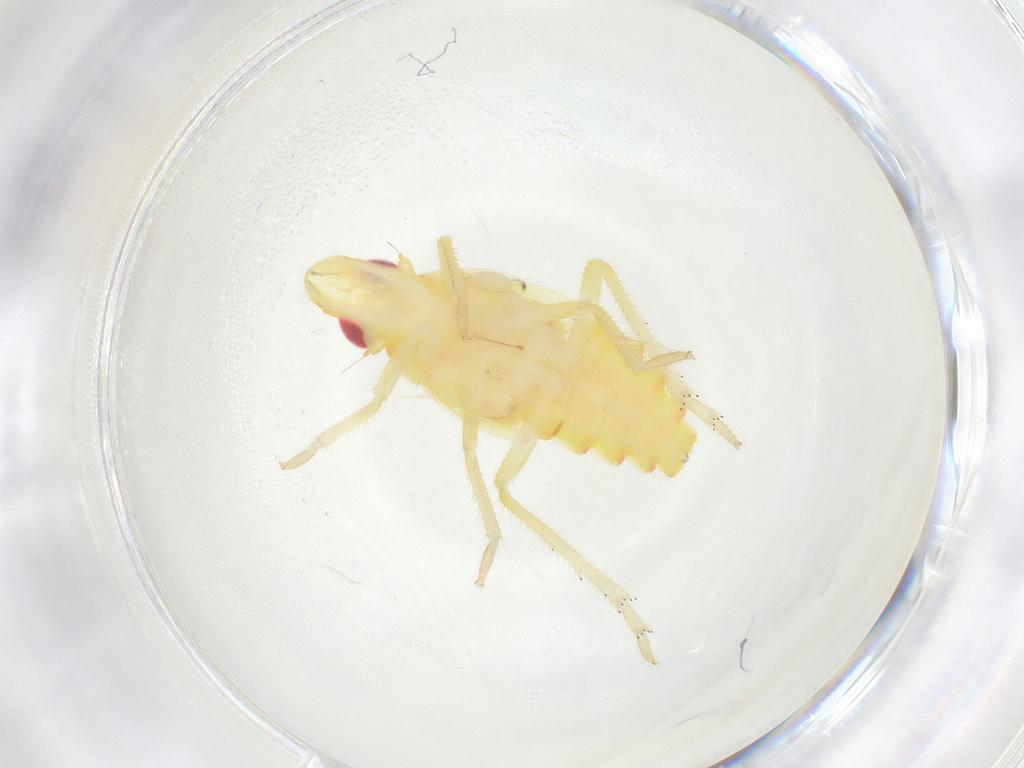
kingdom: Animalia
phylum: Arthropoda
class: Insecta
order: Hemiptera
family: Tropiduchidae
